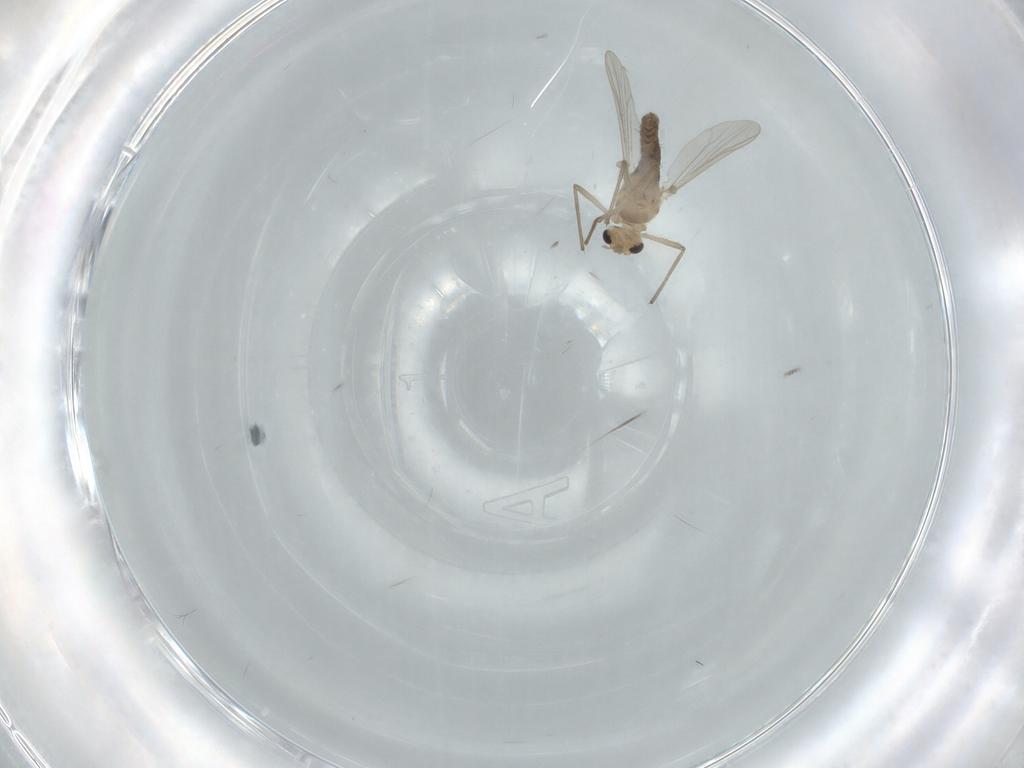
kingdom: Animalia
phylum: Arthropoda
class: Insecta
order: Diptera
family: Chironomidae
